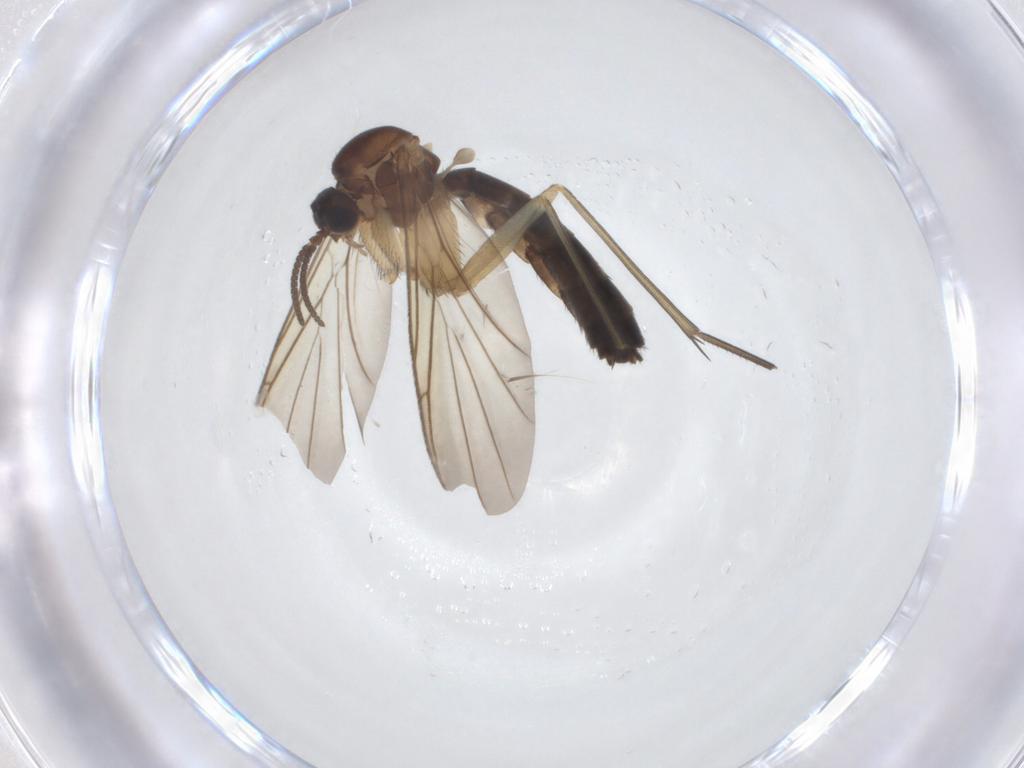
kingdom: Animalia
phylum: Arthropoda
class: Insecta
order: Diptera
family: Keroplatidae
